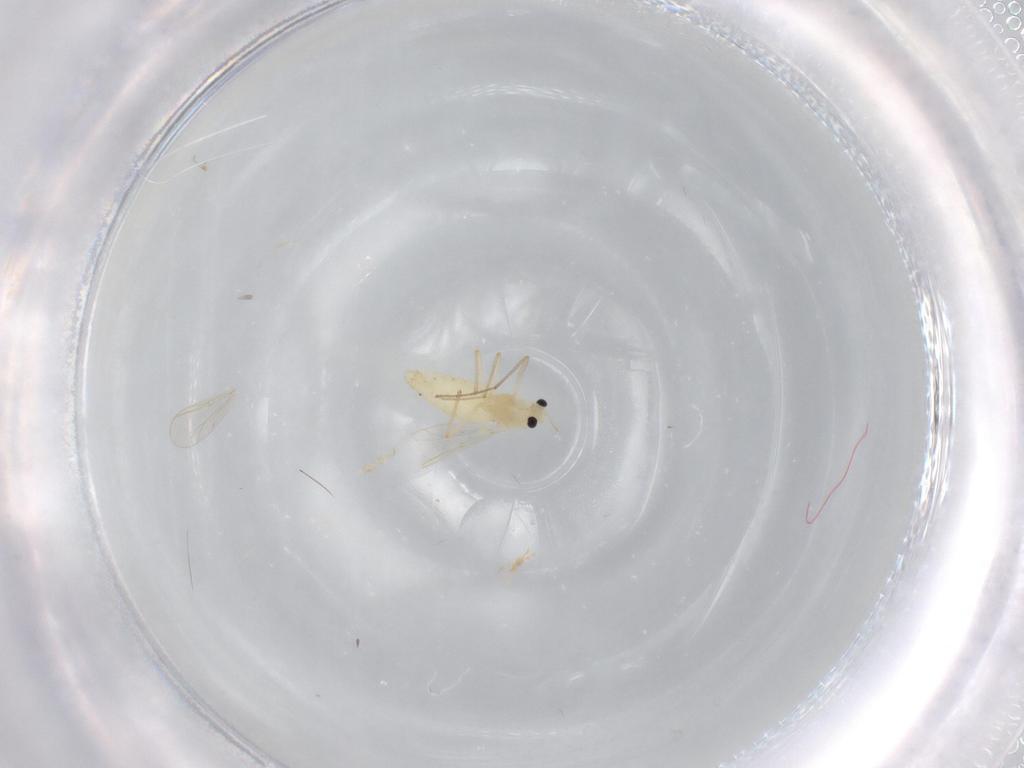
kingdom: Animalia
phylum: Arthropoda
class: Insecta
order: Diptera
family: Chironomidae
